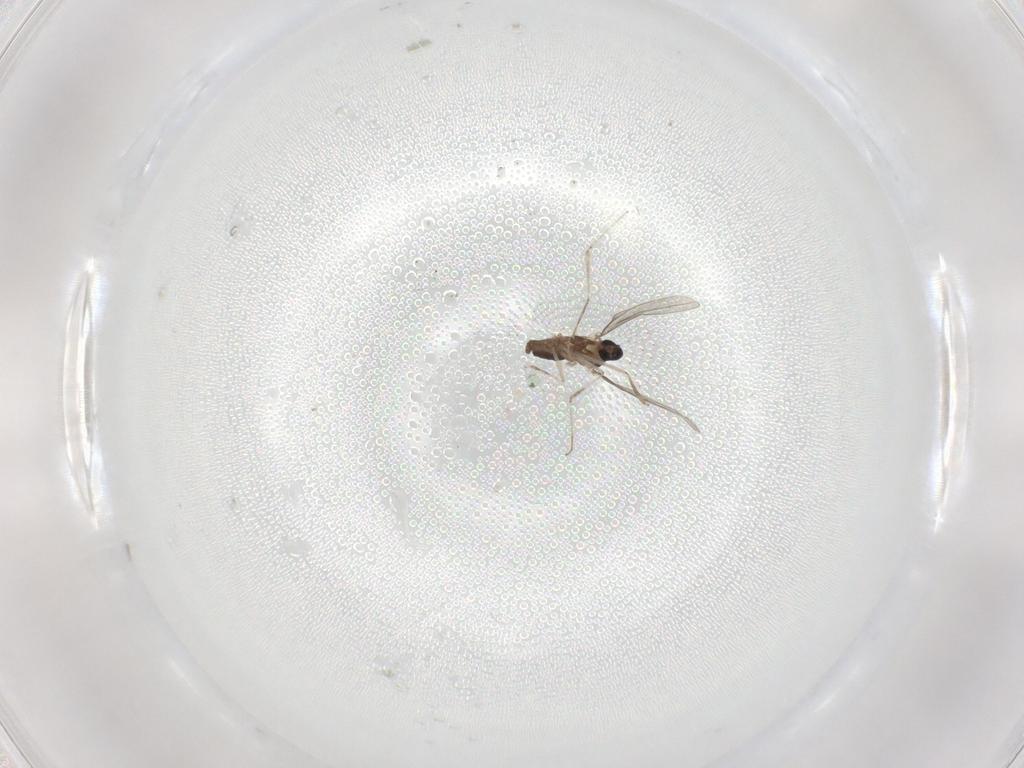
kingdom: Animalia
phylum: Arthropoda
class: Insecta
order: Diptera
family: Cecidomyiidae
